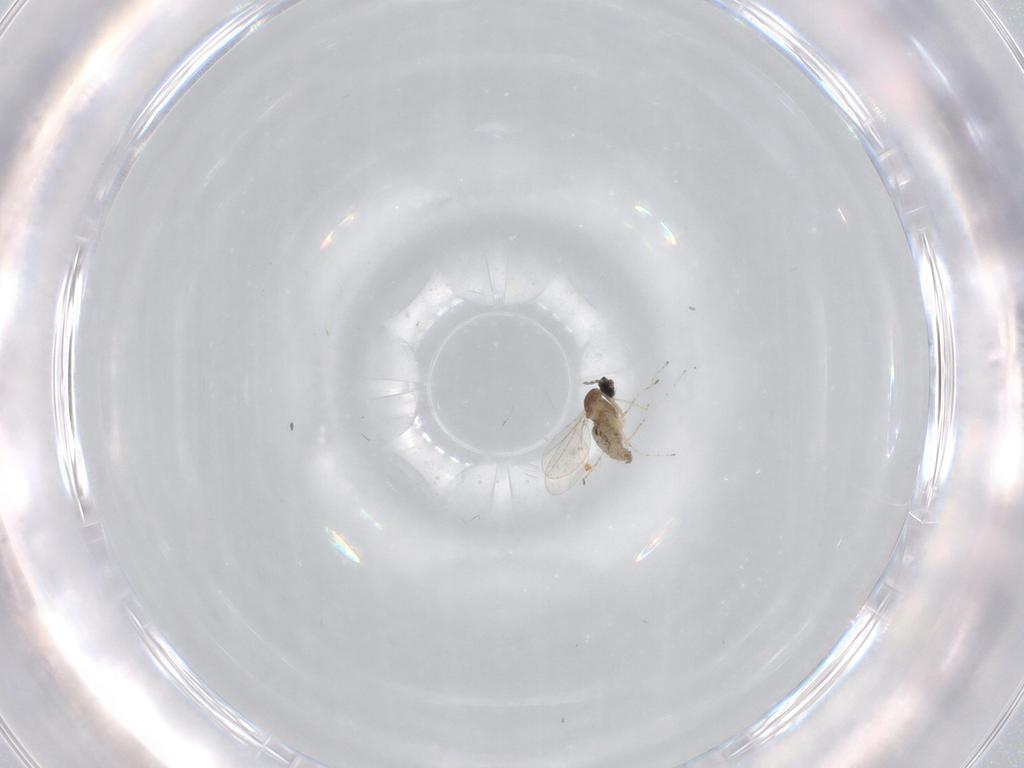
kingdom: Animalia
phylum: Arthropoda
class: Insecta
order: Diptera
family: Cecidomyiidae
